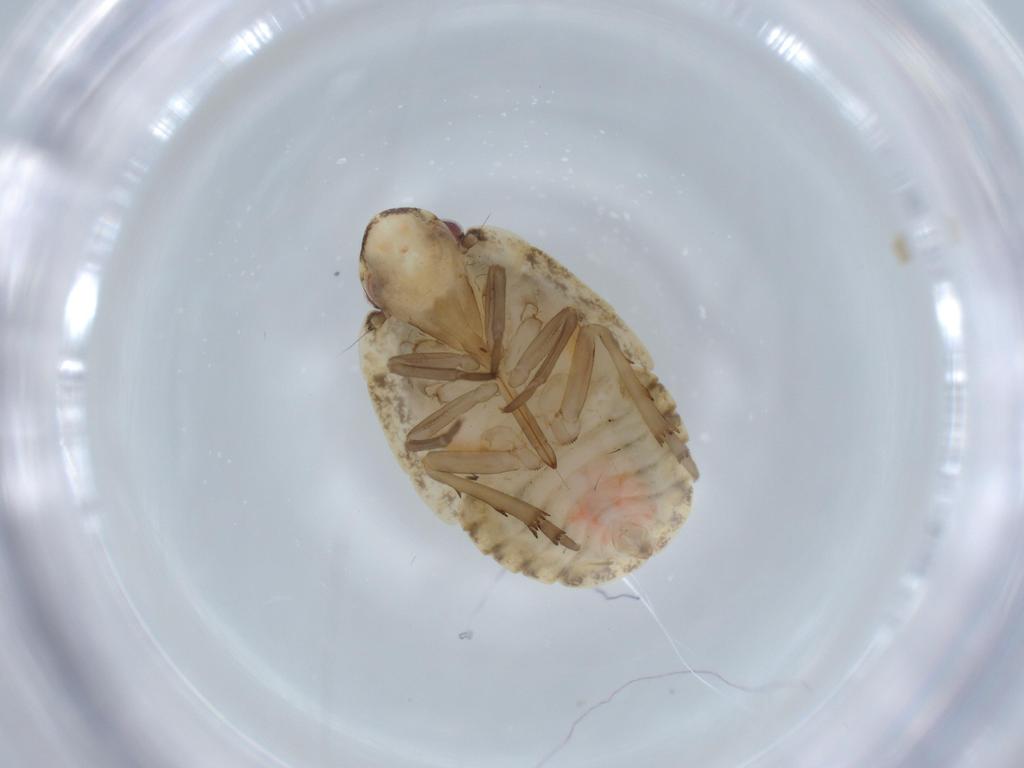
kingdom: Animalia
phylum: Arthropoda
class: Insecta
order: Hemiptera
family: Flatidae
